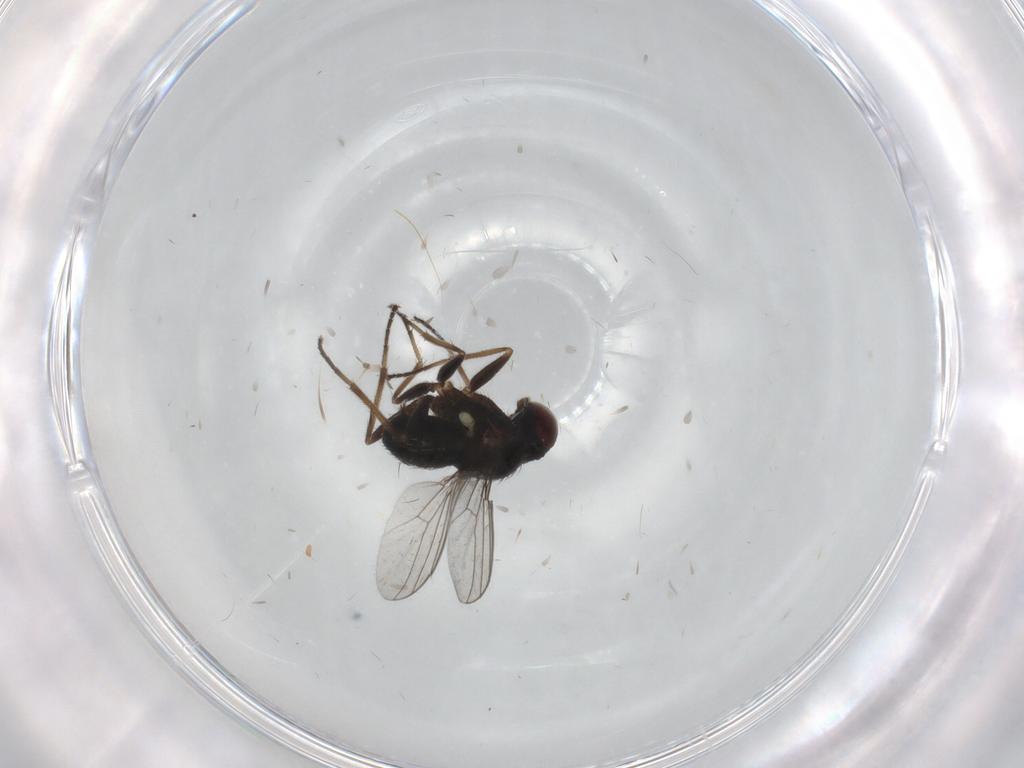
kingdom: Animalia
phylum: Arthropoda
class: Insecta
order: Diptera
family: Dolichopodidae
